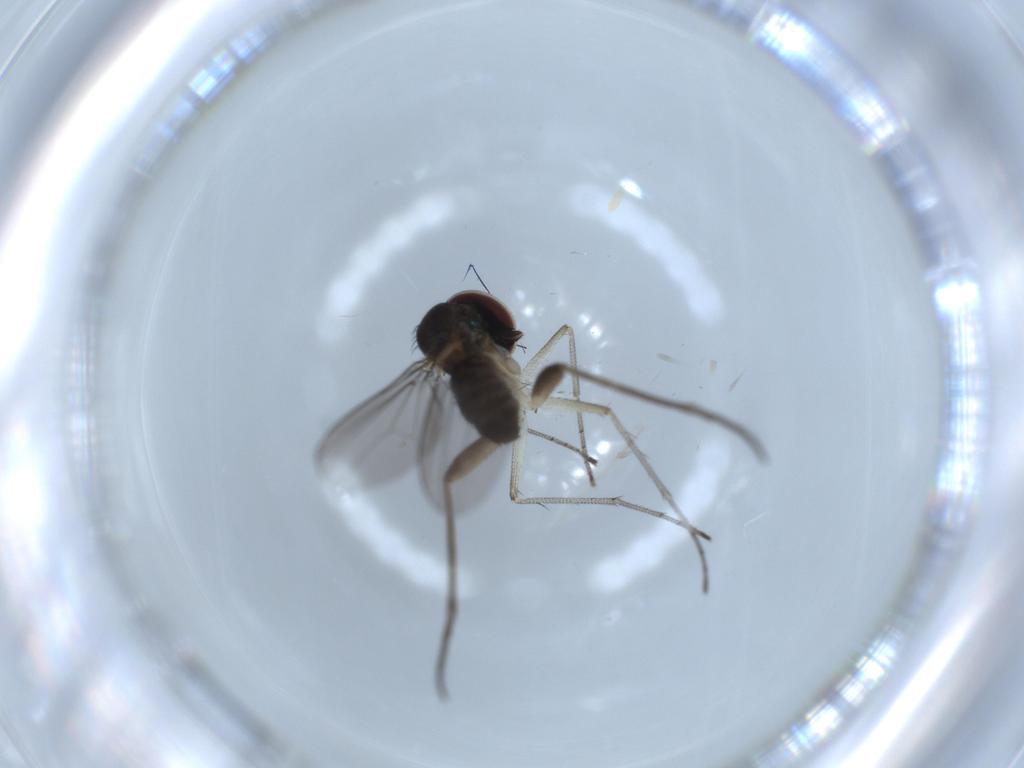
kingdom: Animalia
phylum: Arthropoda
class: Insecta
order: Diptera
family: Dolichopodidae
